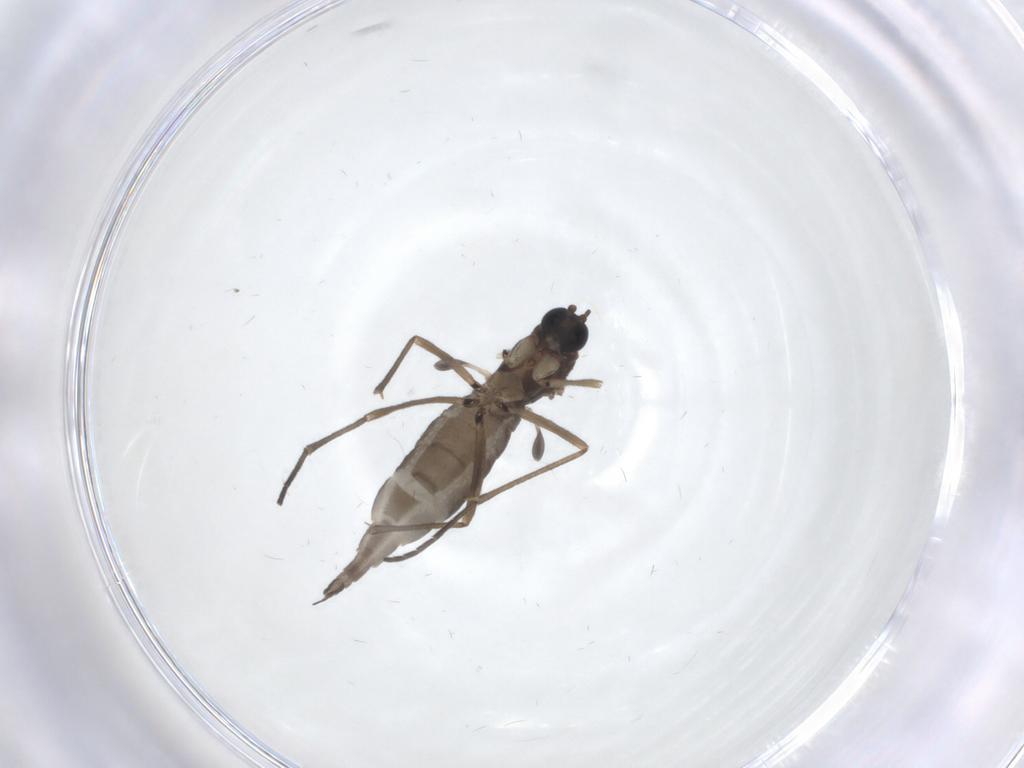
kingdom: Animalia
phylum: Arthropoda
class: Insecta
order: Diptera
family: Sciaridae
